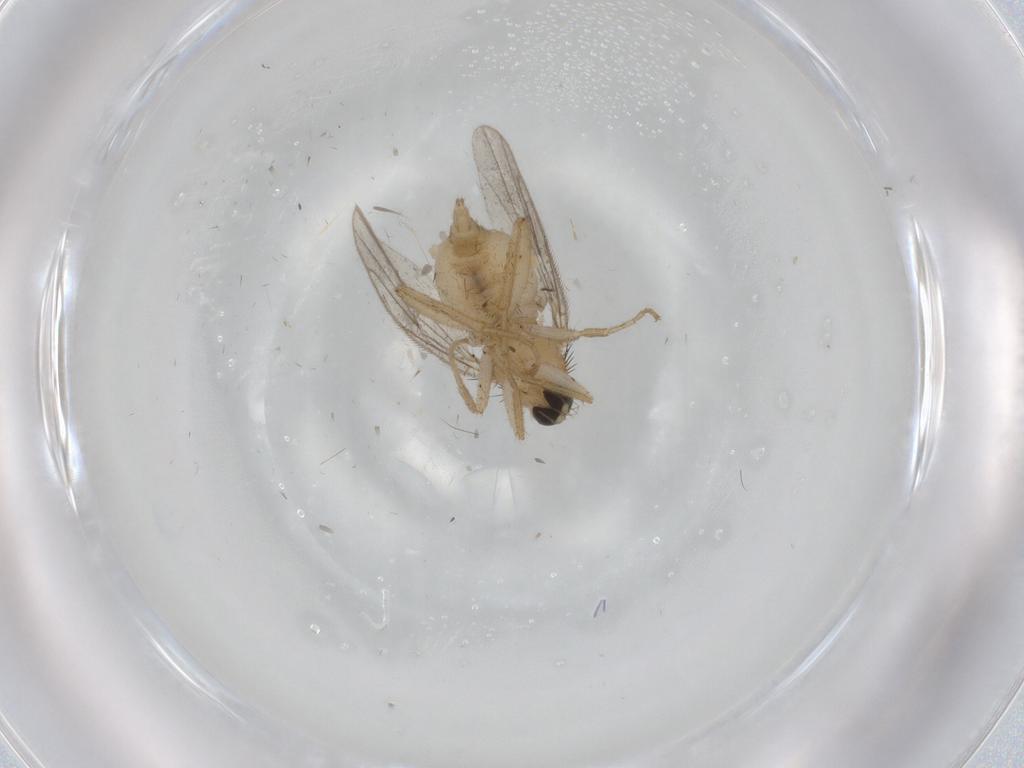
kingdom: Animalia
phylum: Arthropoda
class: Insecta
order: Diptera
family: Hybotidae
